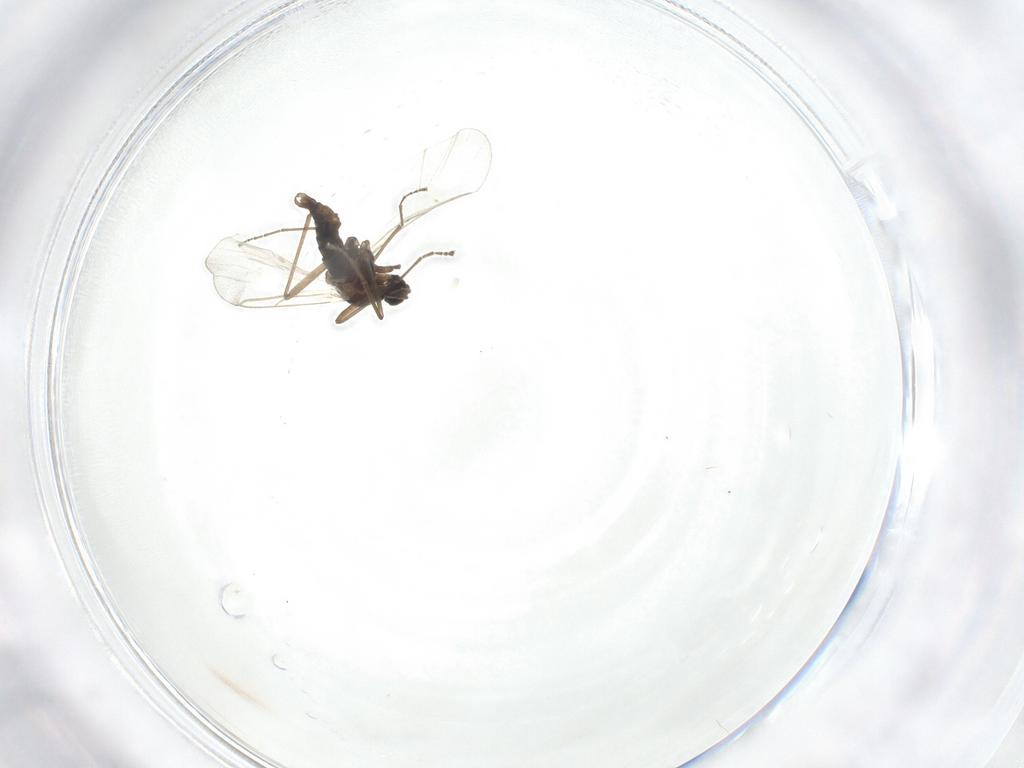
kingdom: Animalia
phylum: Arthropoda
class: Insecta
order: Diptera
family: Cecidomyiidae
